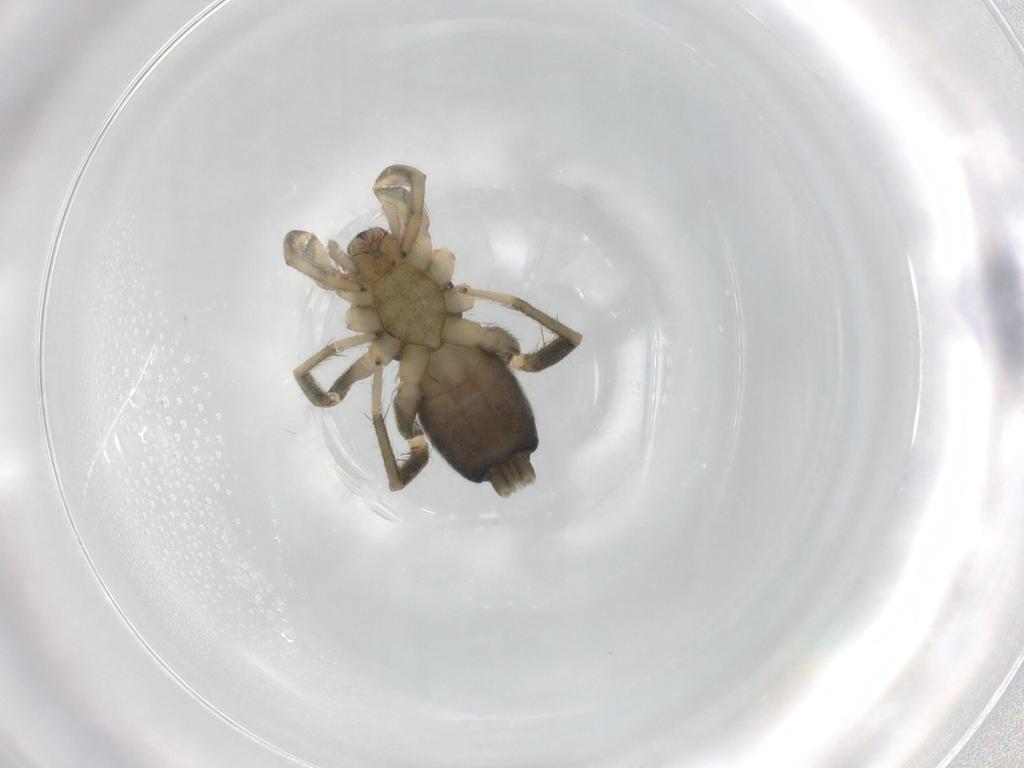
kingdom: Animalia
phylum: Arthropoda
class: Arachnida
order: Araneae
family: Gnaphosidae
